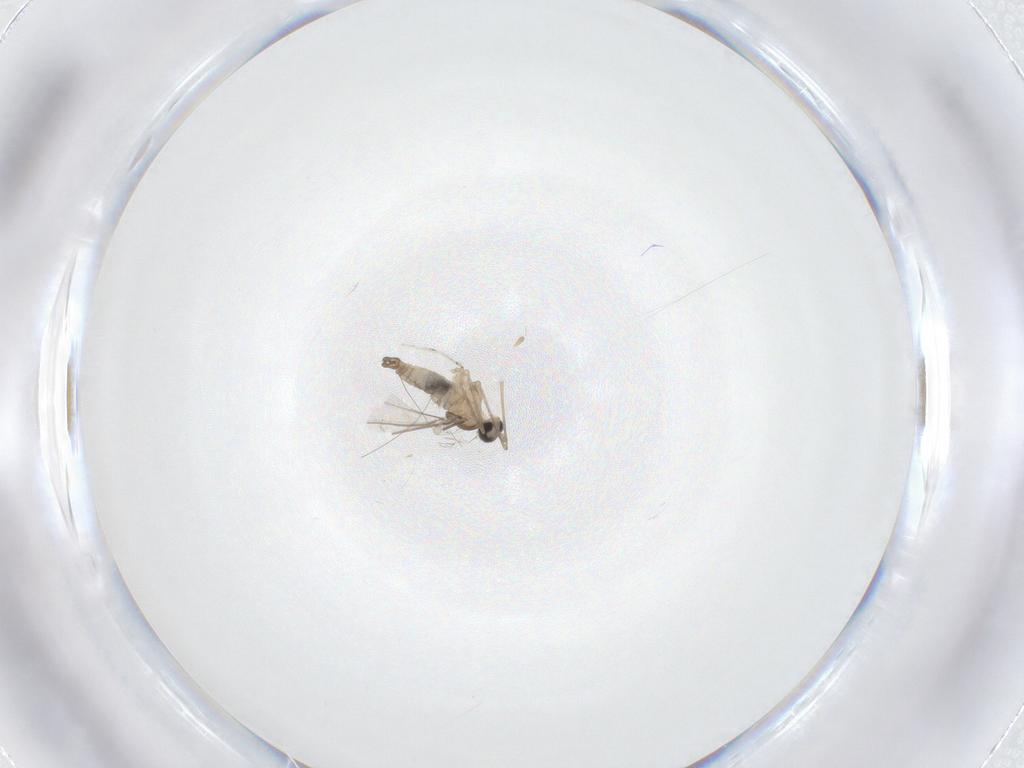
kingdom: Animalia
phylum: Arthropoda
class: Insecta
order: Diptera
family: Cecidomyiidae
